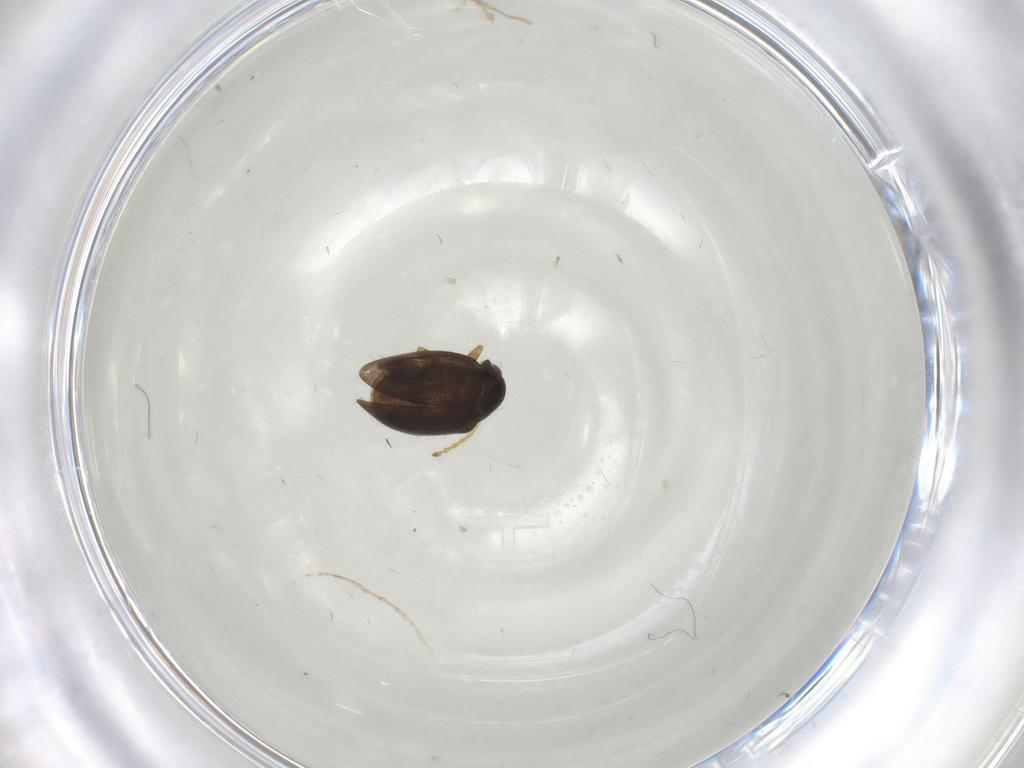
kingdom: Animalia
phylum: Arthropoda
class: Insecta
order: Coleoptera
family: Chrysomelidae
